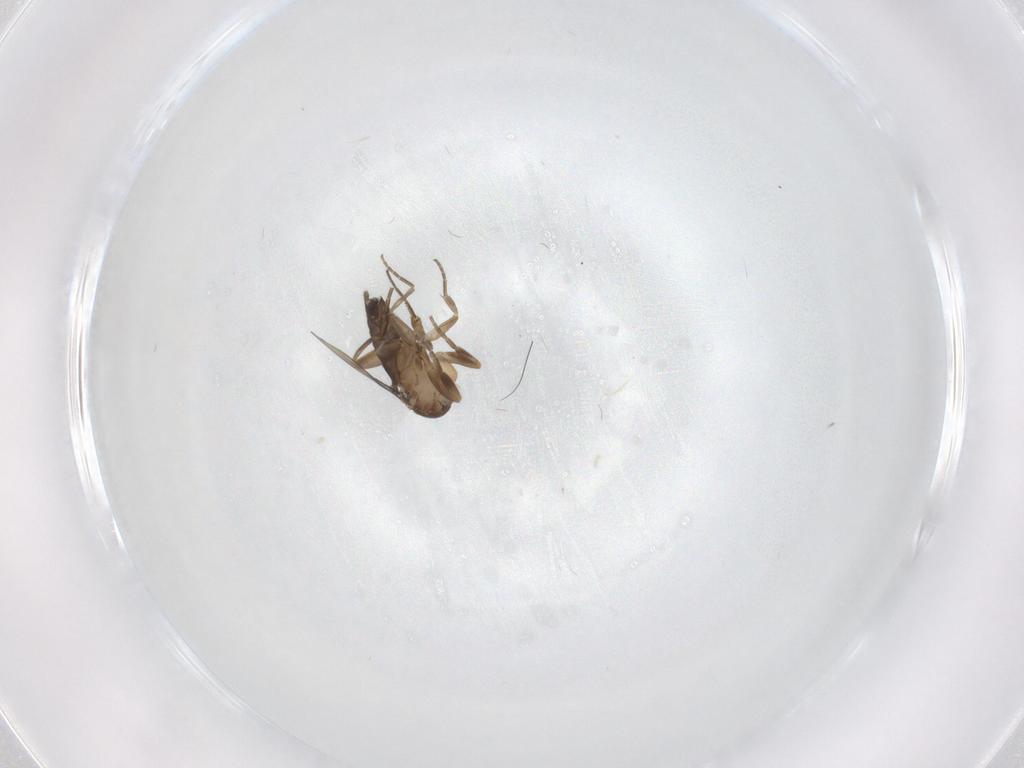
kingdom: Animalia
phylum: Arthropoda
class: Insecta
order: Diptera
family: Phoridae
